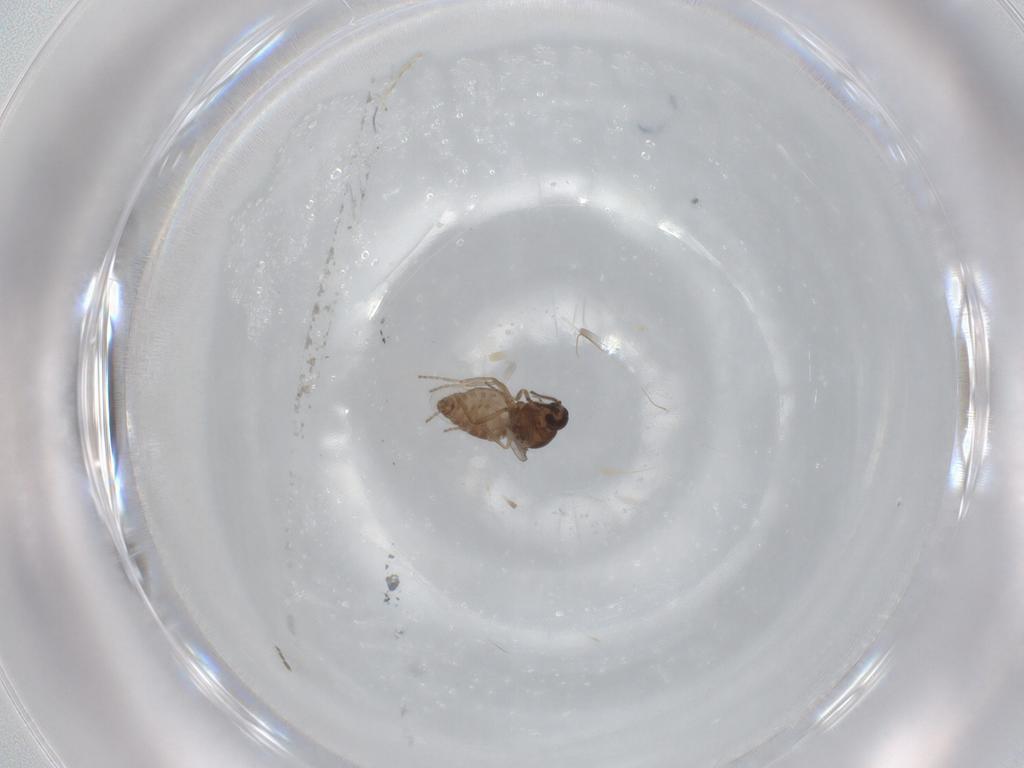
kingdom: Animalia
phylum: Arthropoda
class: Insecta
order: Diptera
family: Ceratopogonidae
